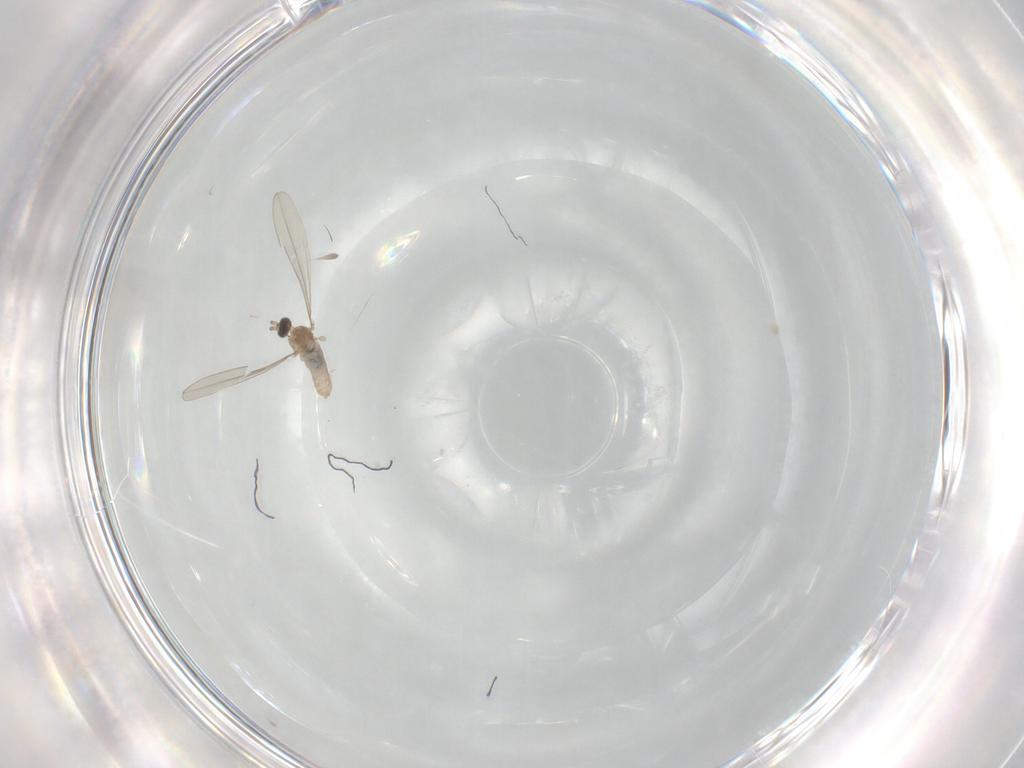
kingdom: Animalia
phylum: Arthropoda
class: Insecta
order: Diptera
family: Cecidomyiidae
